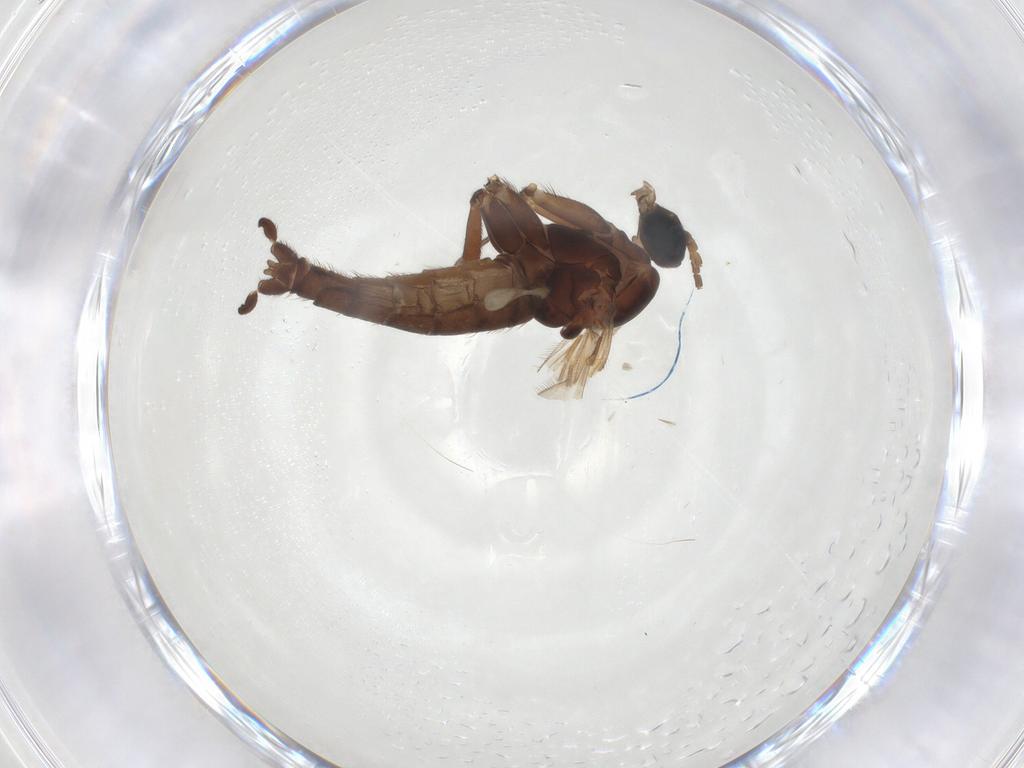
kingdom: Animalia
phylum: Arthropoda
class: Insecta
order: Diptera
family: Sciaridae
